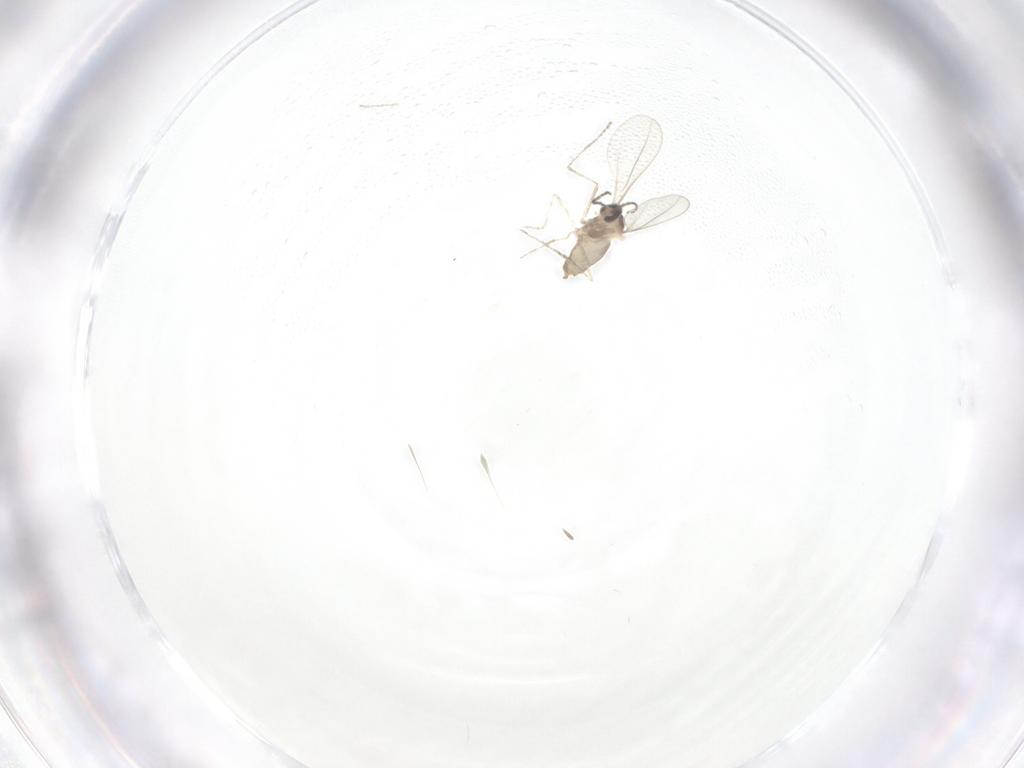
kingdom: Animalia
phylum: Arthropoda
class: Insecta
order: Diptera
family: Cecidomyiidae
